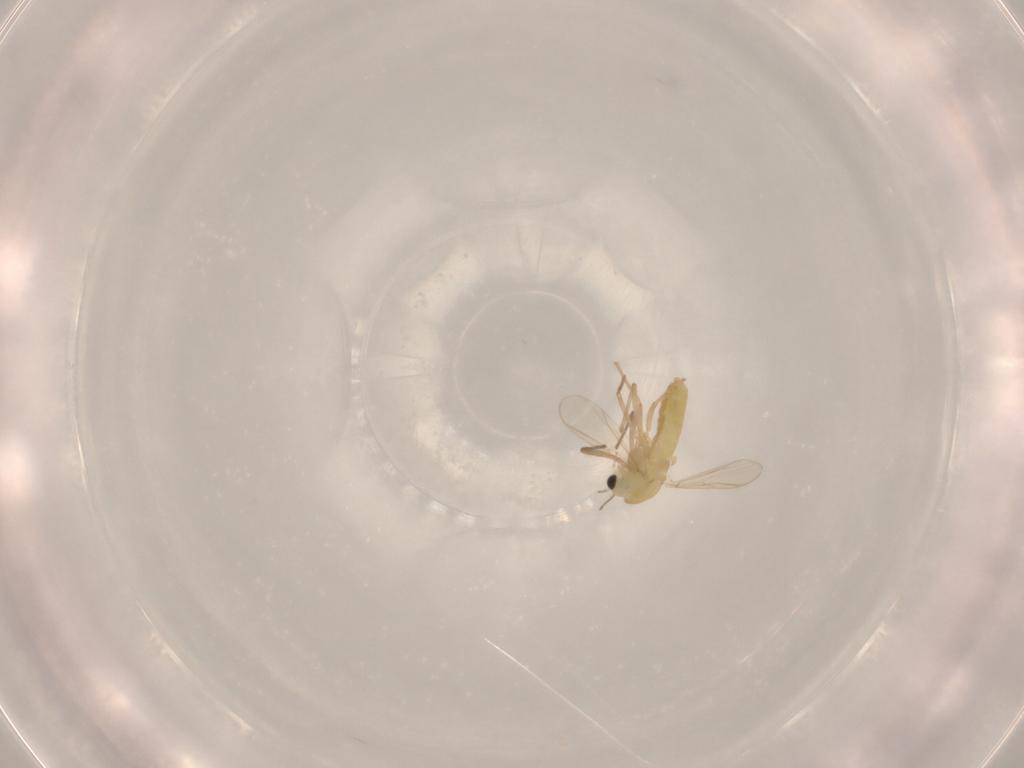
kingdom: Animalia
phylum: Arthropoda
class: Insecta
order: Diptera
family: Chironomidae
